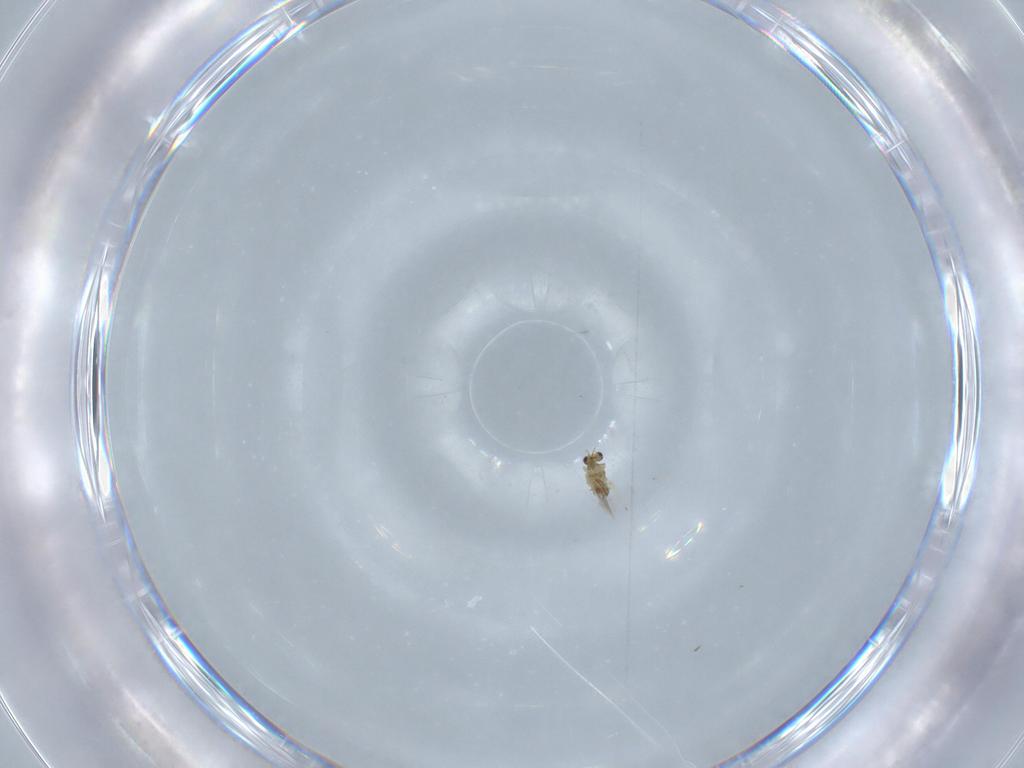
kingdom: Animalia
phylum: Arthropoda
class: Insecta
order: Hymenoptera
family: Mymaridae
